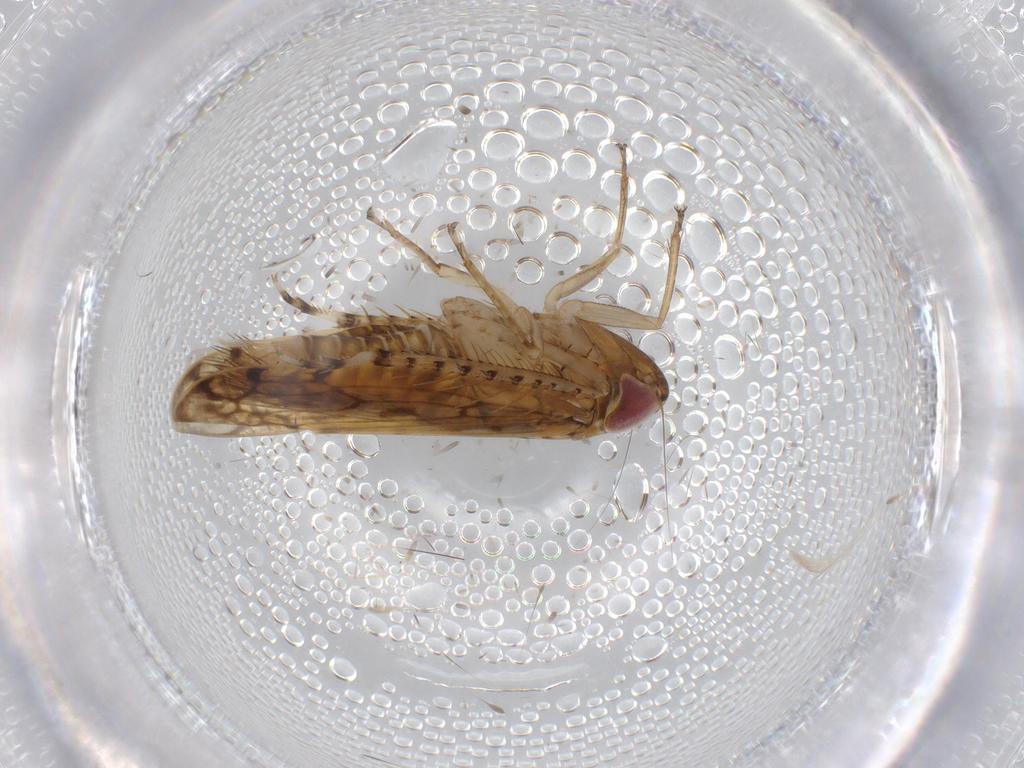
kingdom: Animalia
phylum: Arthropoda
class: Insecta
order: Hemiptera
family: Cicadellidae
